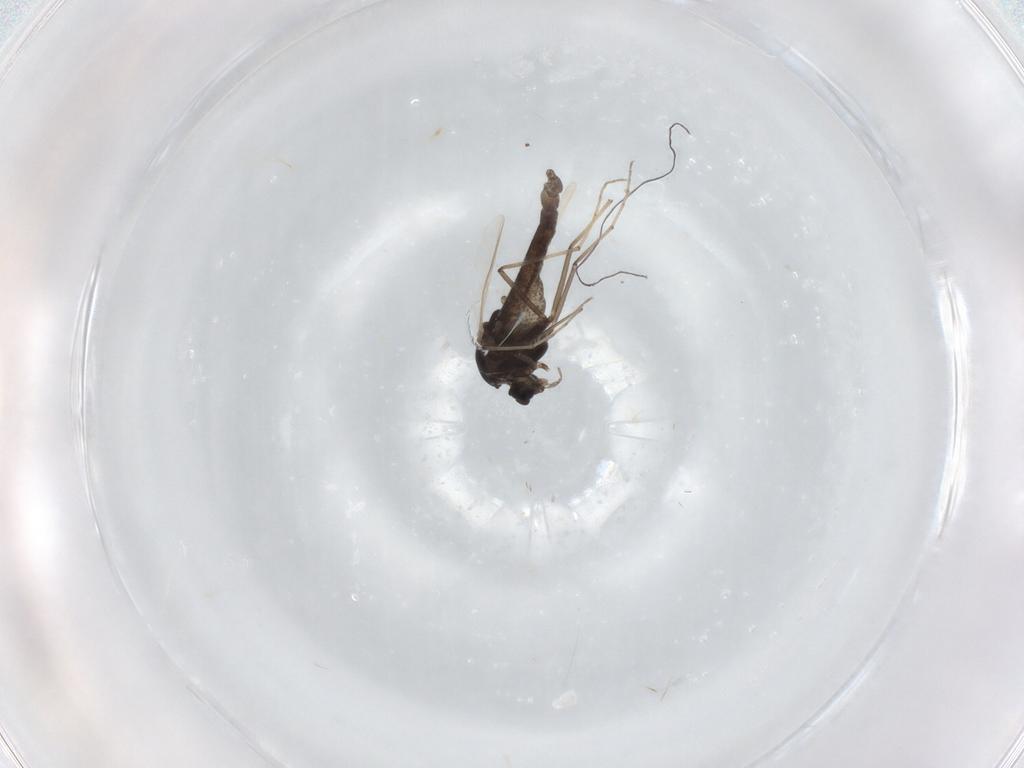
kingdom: Animalia
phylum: Arthropoda
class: Insecta
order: Diptera
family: Chironomidae
